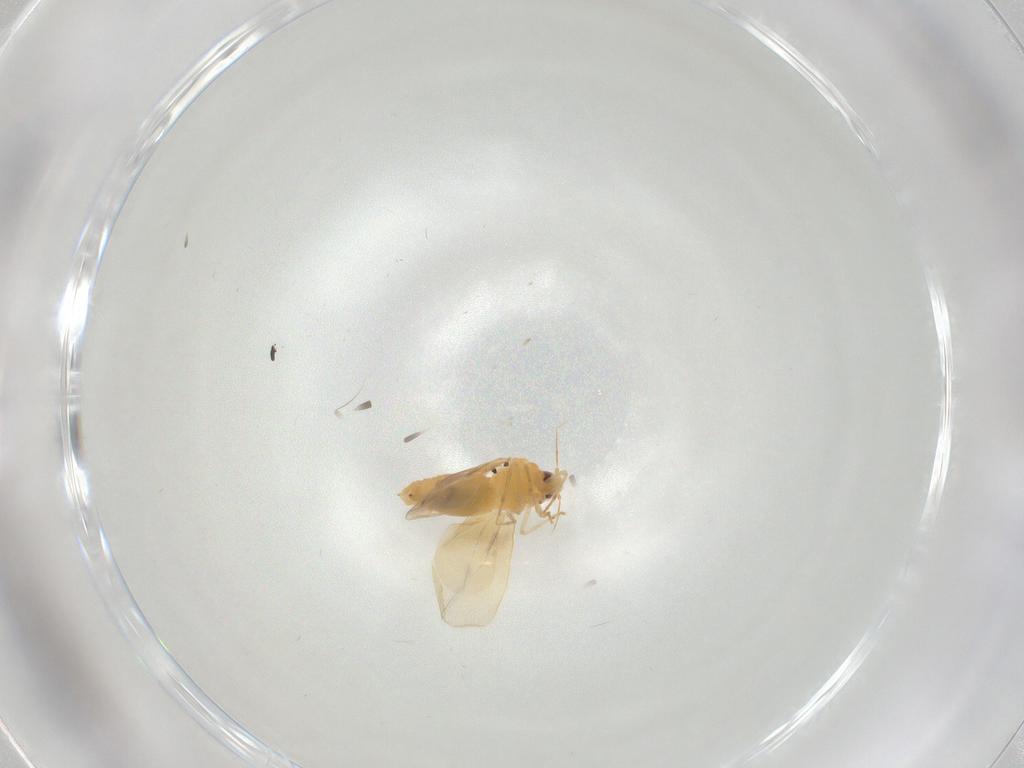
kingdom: Animalia
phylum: Arthropoda
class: Insecta
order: Hemiptera
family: Aleyrodidae
